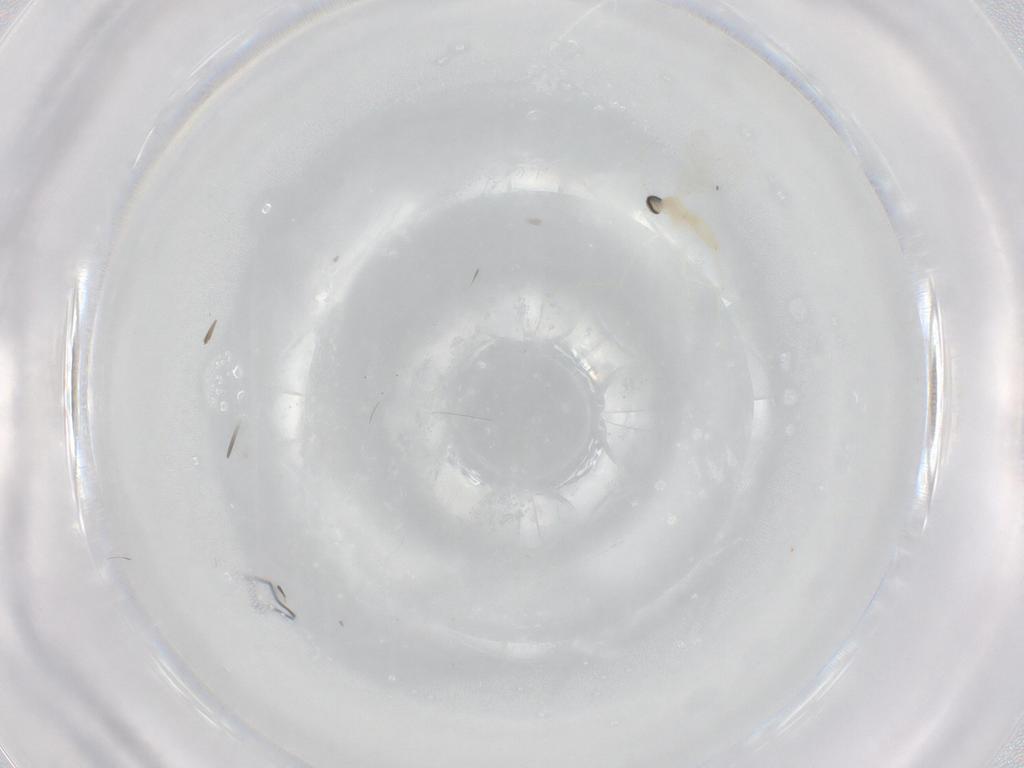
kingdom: Animalia
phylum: Arthropoda
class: Insecta
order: Diptera
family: Cecidomyiidae
